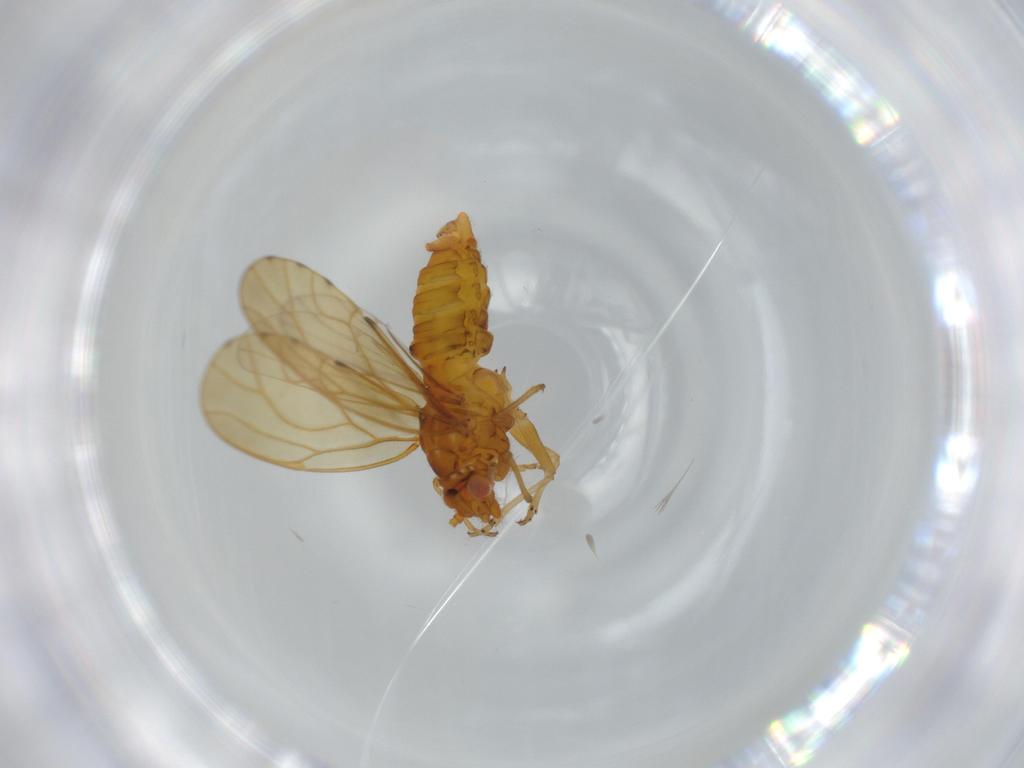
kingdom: Animalia
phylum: Arthropoda
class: Insecta
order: Hemiptera
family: Psylloidea_incertae_sedis
